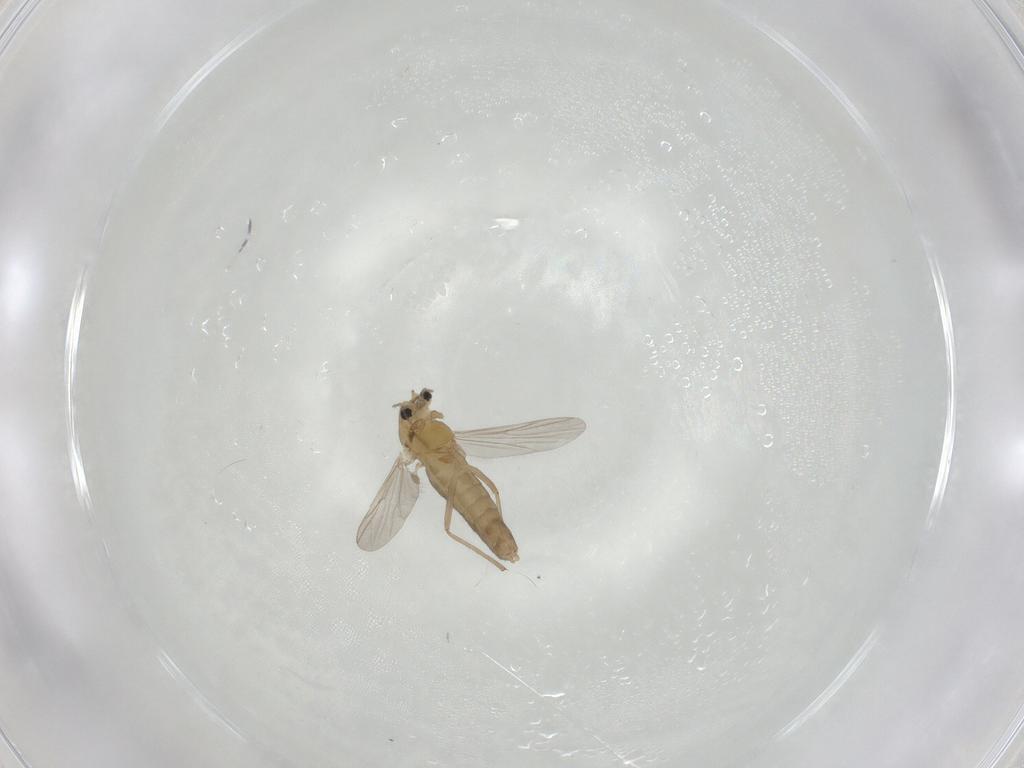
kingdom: Animalia
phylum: Arthropoda
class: Insecta
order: Diptera
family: Chironomidae
